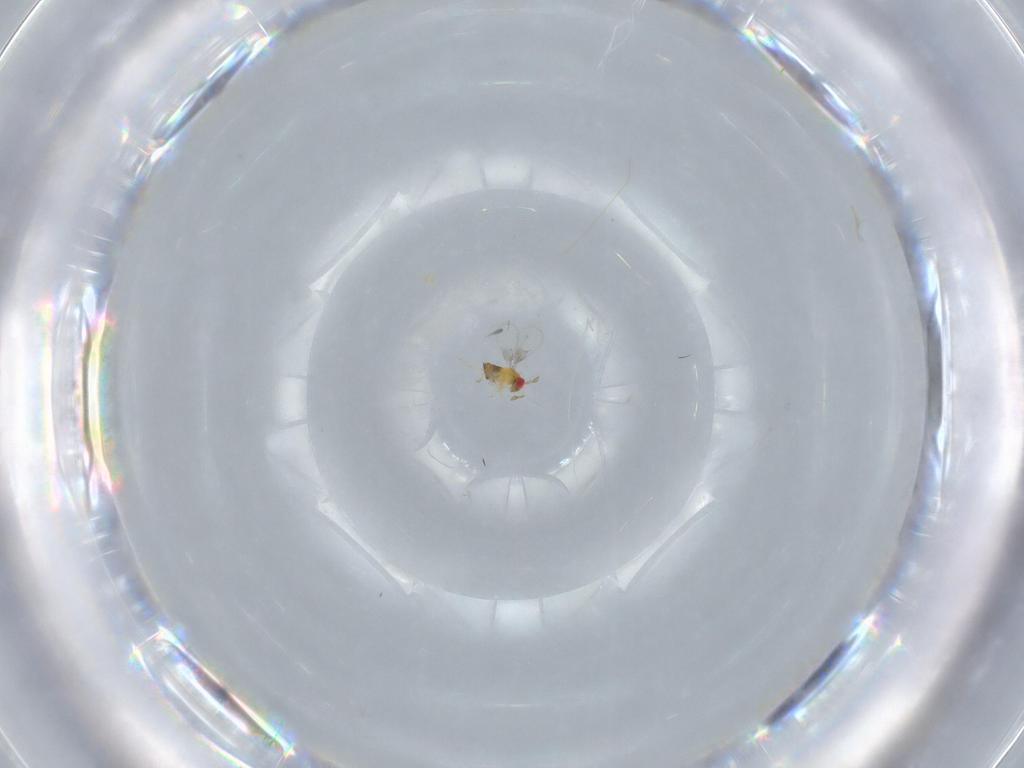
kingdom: Animalia
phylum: Arthropoda
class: Insecta
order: Hymenoptera
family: Trichogrammatidae
